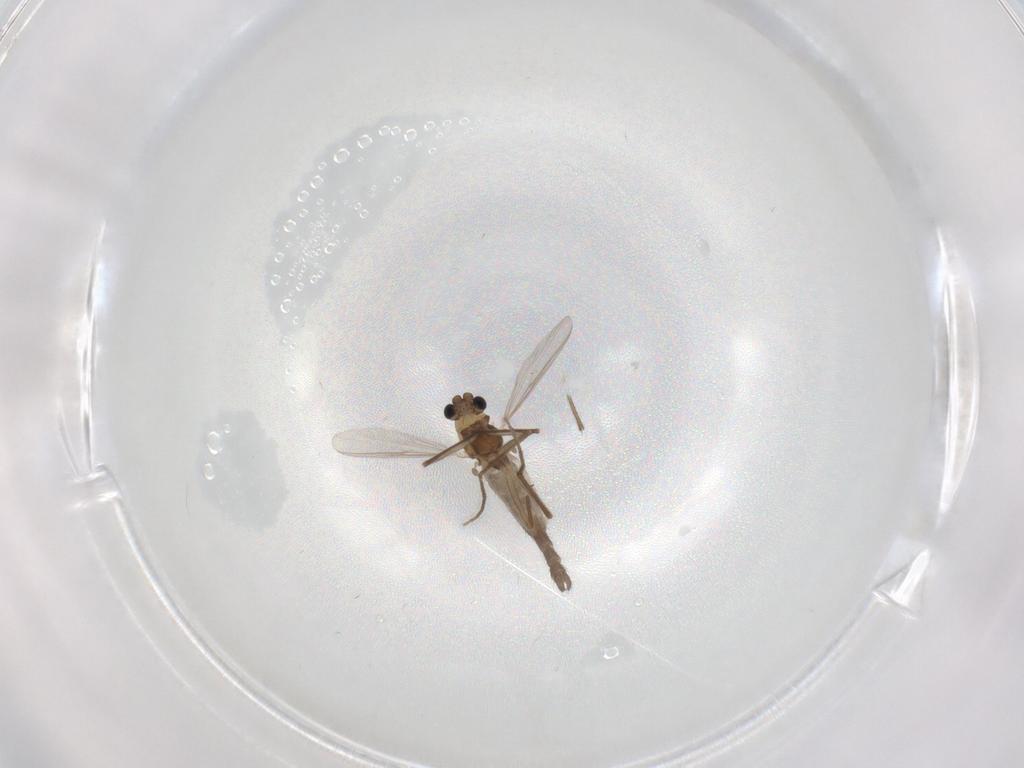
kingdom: Animalia
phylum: Arthropoda
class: Insecta
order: Diptera
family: Chironomidae
